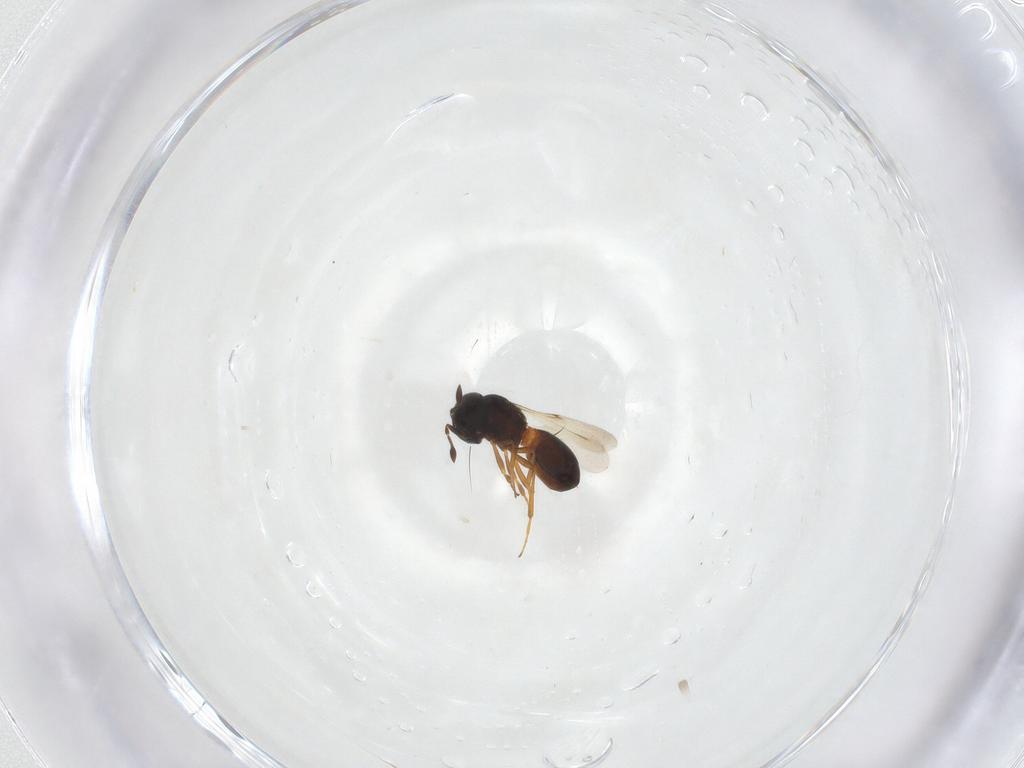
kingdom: Animalia
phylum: Arthropoda
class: Insecta
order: Hymenoptera
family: Scelionidae
